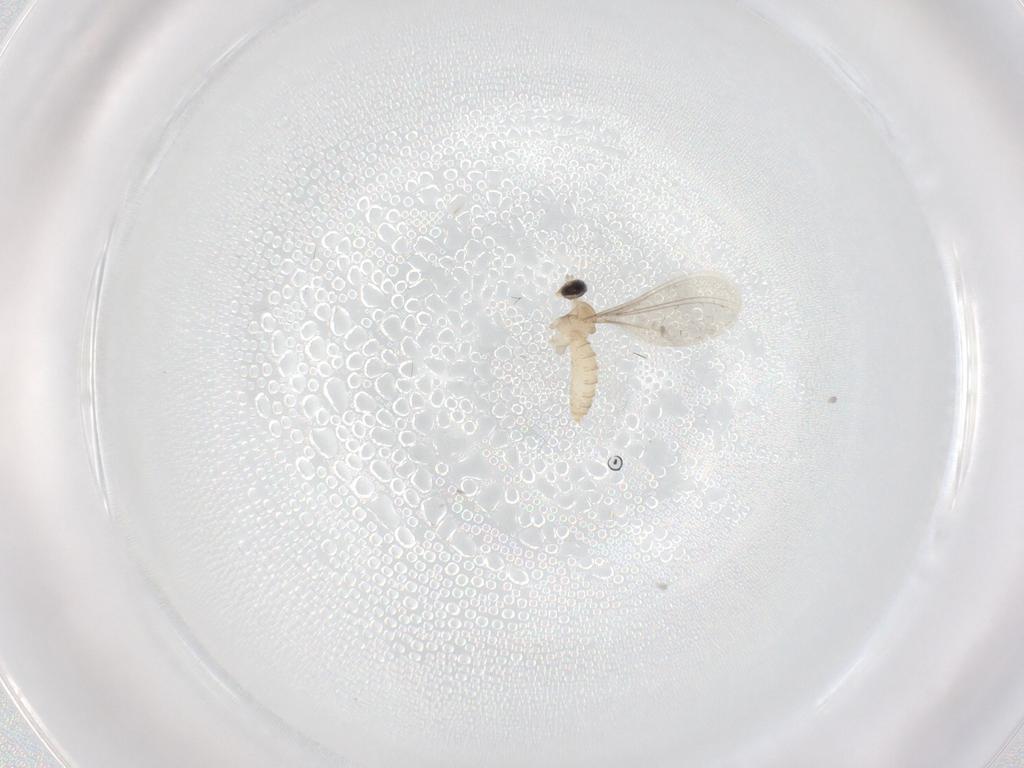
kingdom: Animalia
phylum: Arthropoda
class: Insecta
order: Diptera
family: Cecidomyiidae
